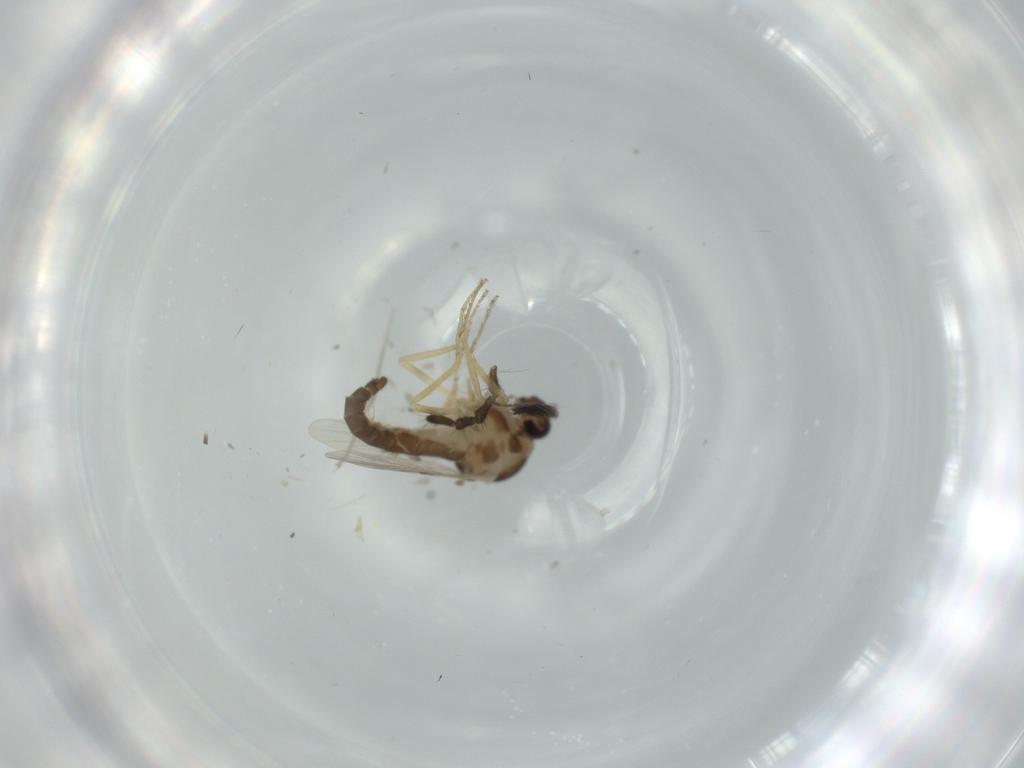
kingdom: Animalia
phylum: Arthropoda
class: Insecta
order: Diptera
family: Ceratopogonidae
